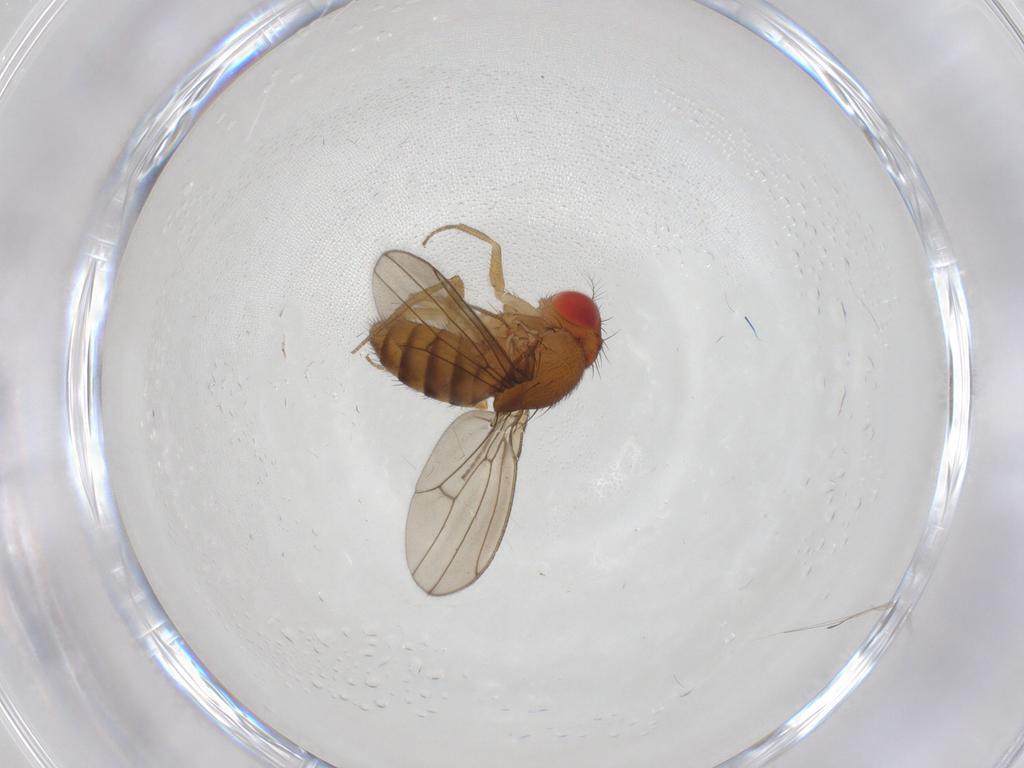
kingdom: Animalia
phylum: Arthropoda
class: Insecta
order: Diptera
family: Drosophilidae
